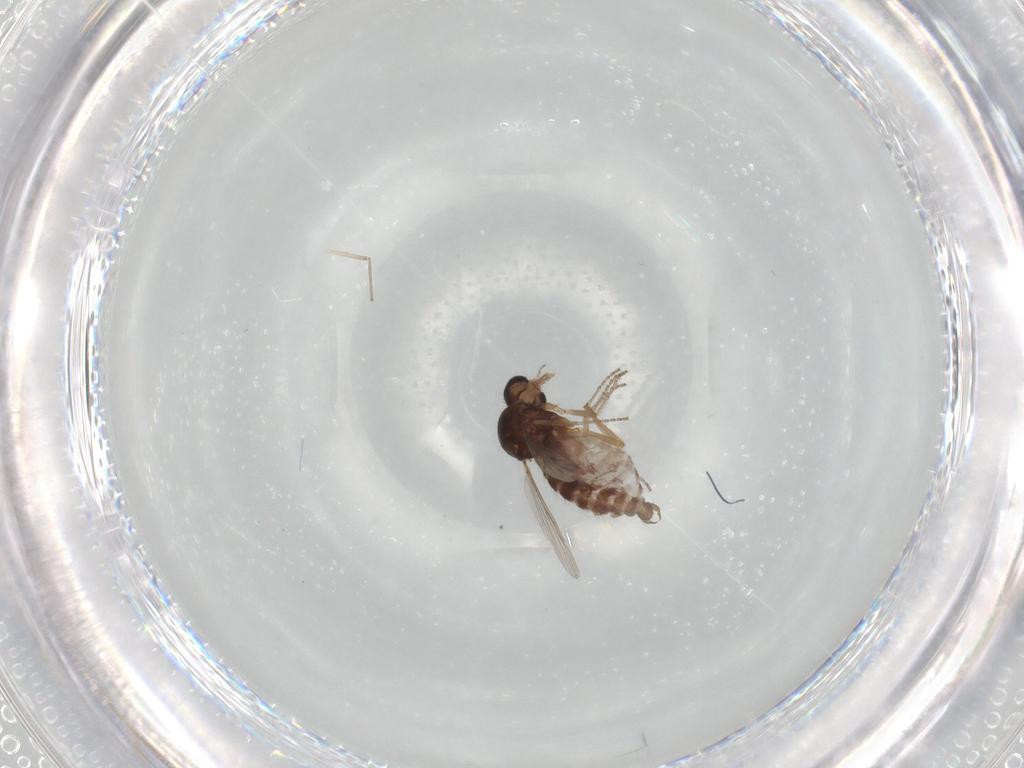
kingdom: Animalia
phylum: Arthropoda
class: Insecta
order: Diptera
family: Ceratopogonidae
